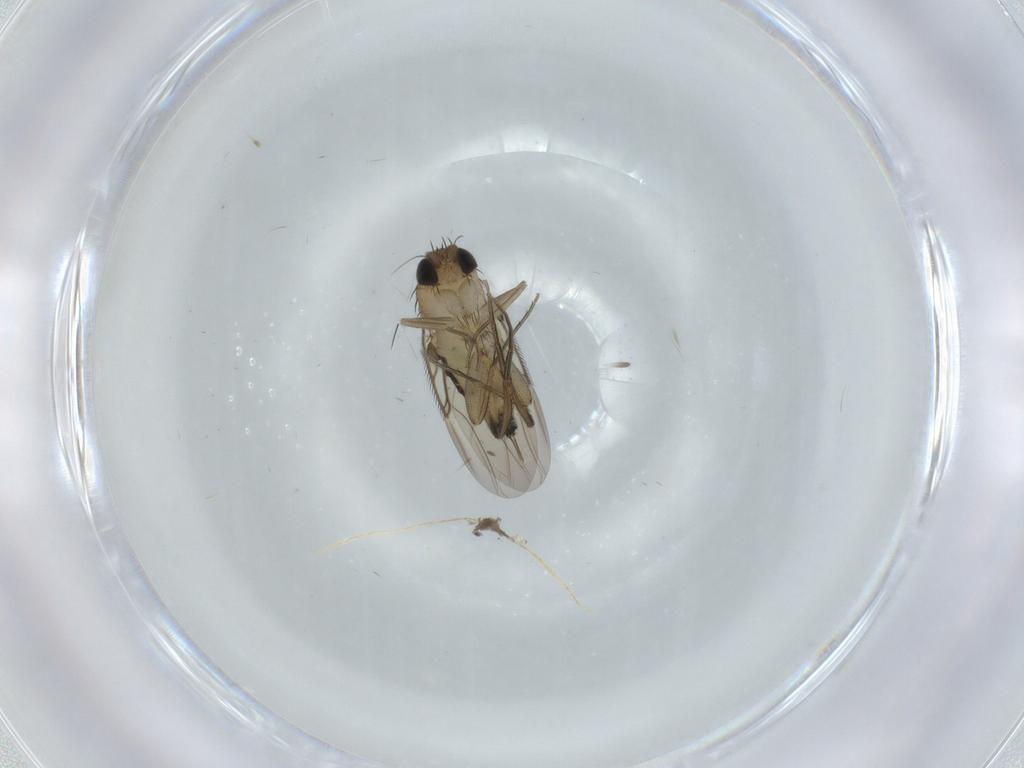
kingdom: Animalia
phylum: Arthropoda
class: Insecta
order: Diptera
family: Phoridae
